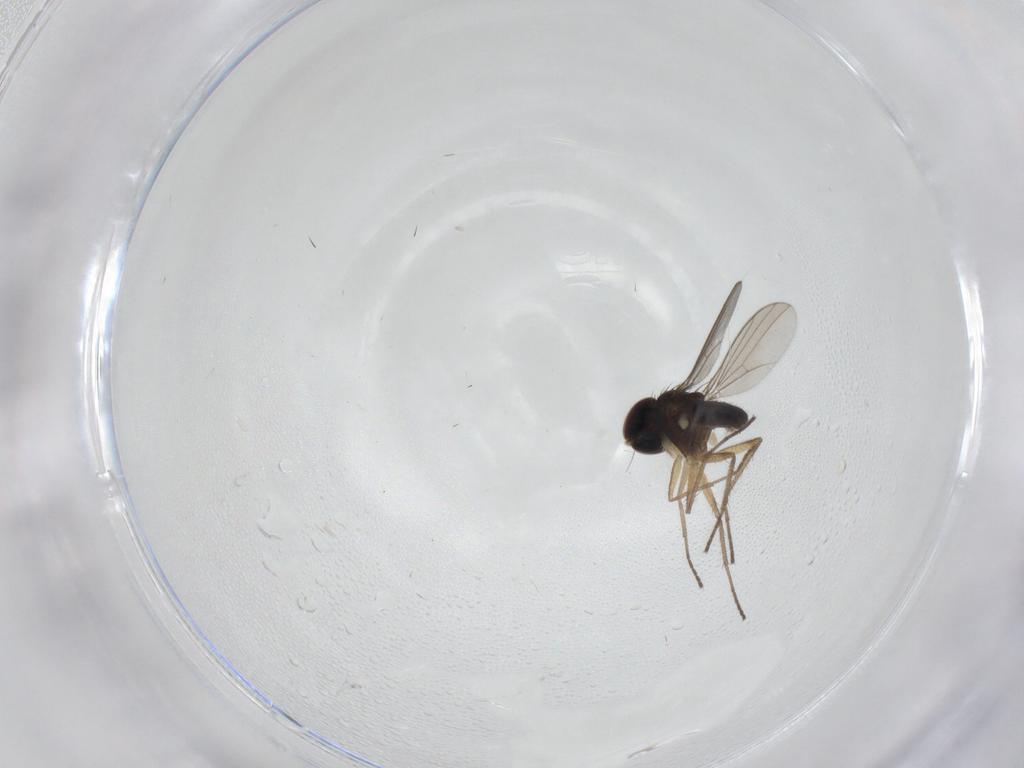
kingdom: Animalia
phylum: Arthropoda
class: Insecta
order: Diptera
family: Dolichopodidae
